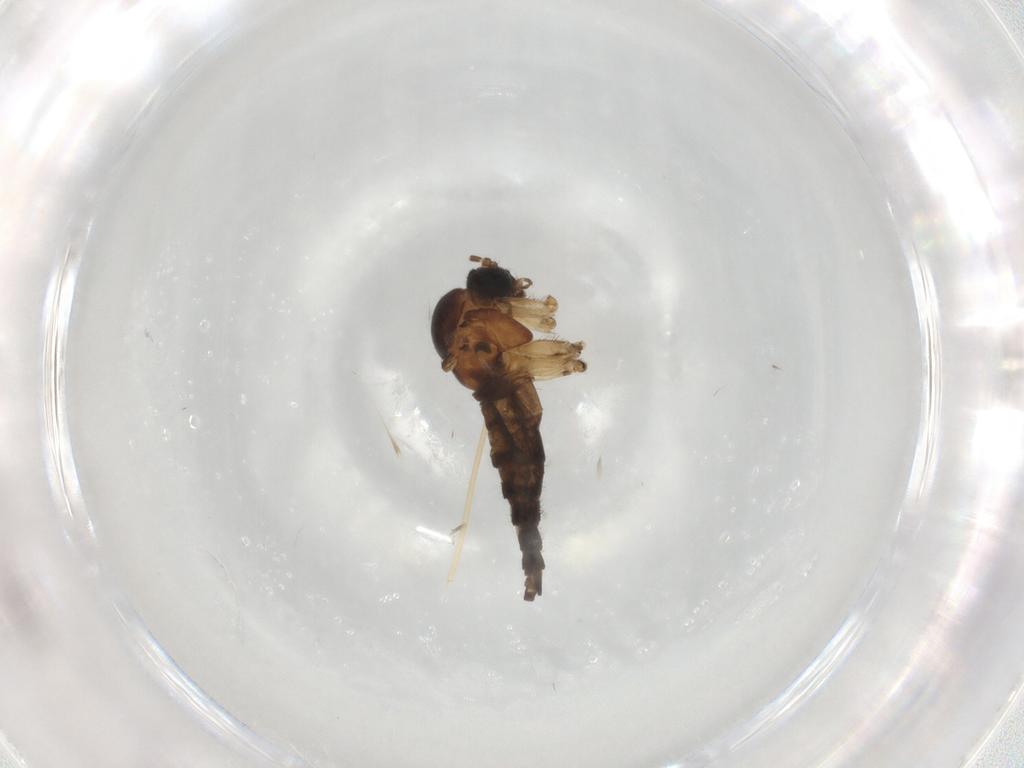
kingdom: Animalia
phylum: Arthropoda
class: Insecta
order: Diptera
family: Sciaridae
